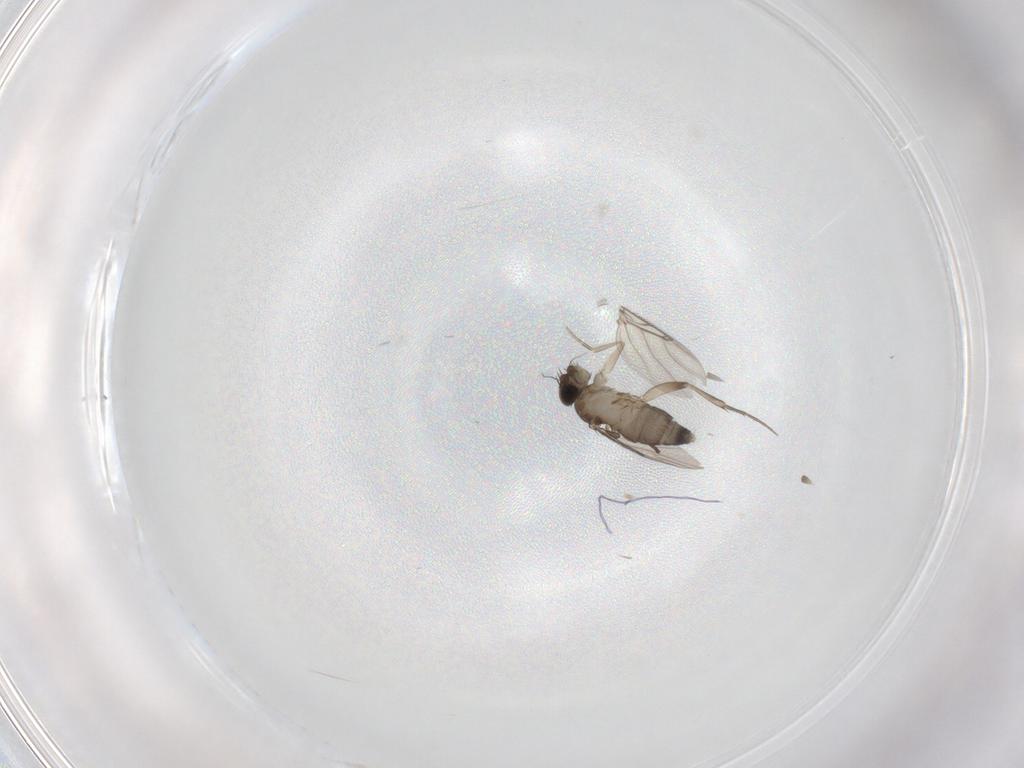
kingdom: Animalia
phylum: Arthropoda
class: Insecta
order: Diptera
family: Phoridae
